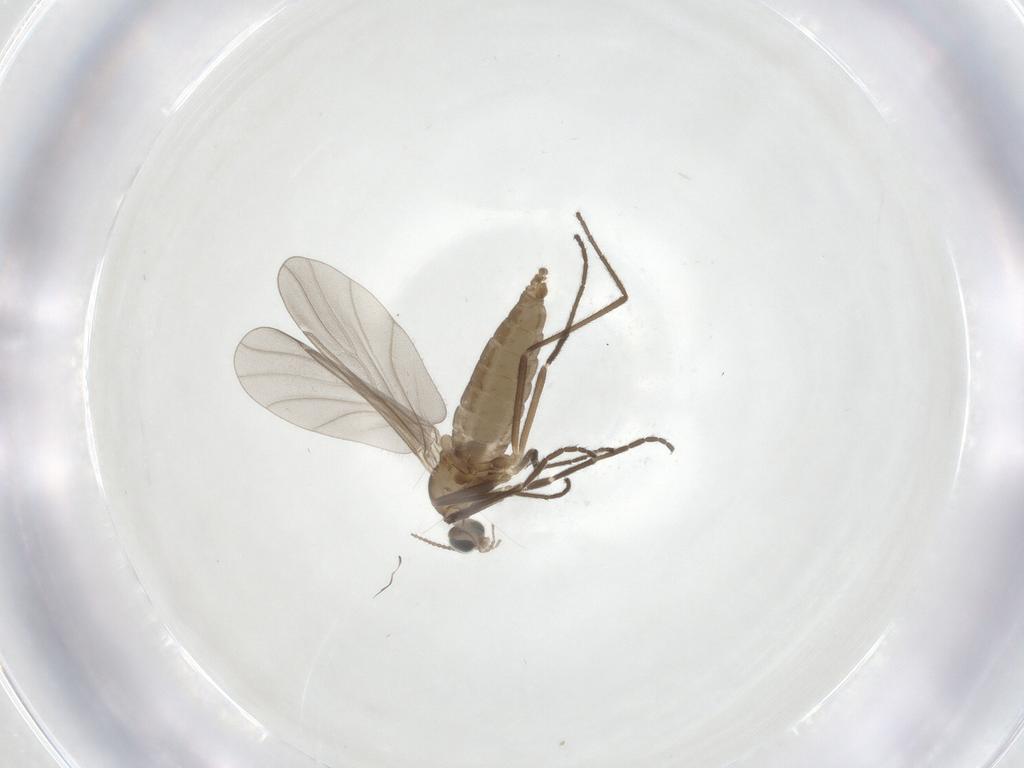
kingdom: Animalia
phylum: Arthropoda
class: Insecta
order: Diptera
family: Cecidomyiidae
